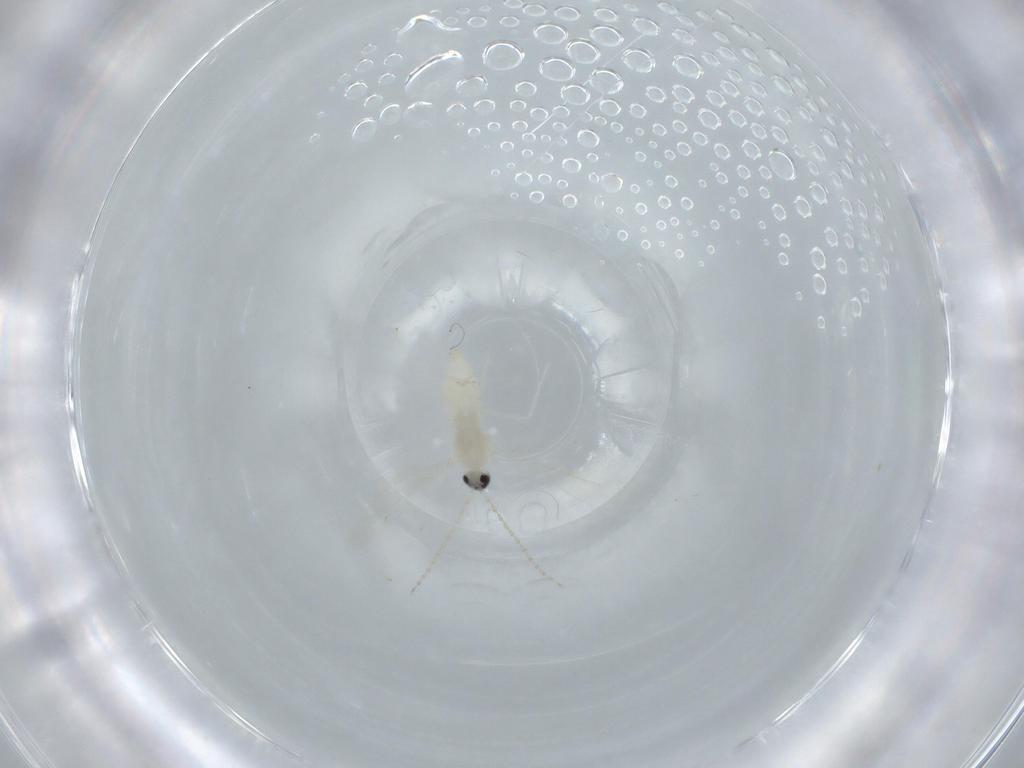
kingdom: Animalia
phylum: Arthropoda
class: Insecta
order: Diptera
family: Cecidomyiidae
